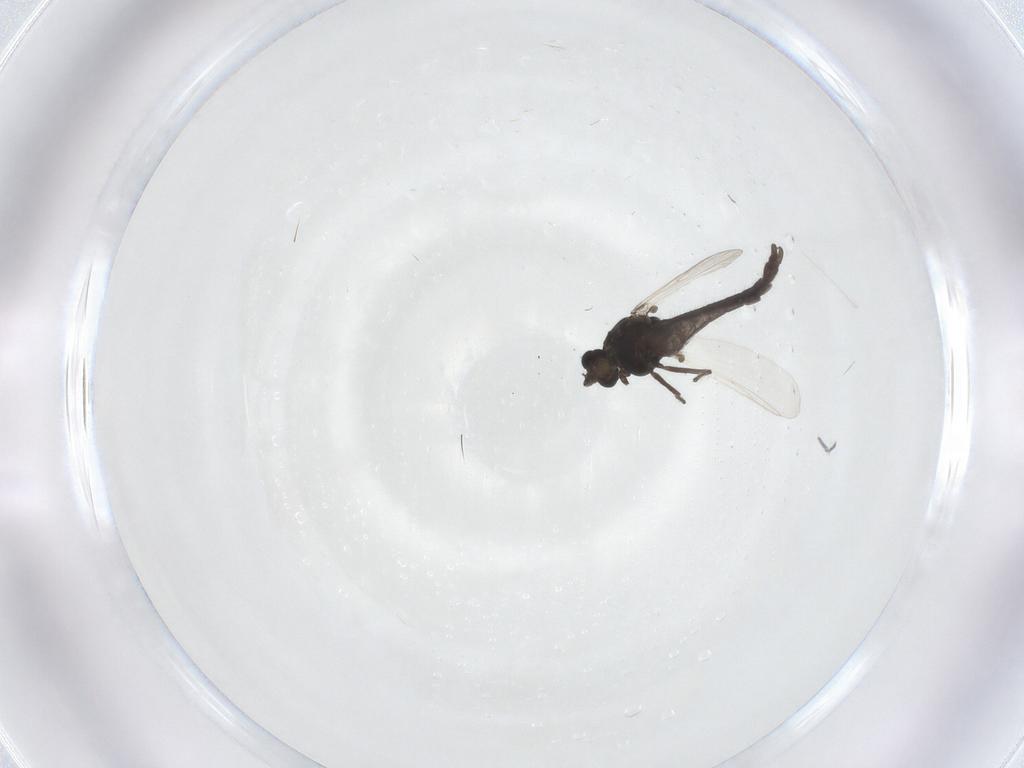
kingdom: Animalia
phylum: Arthropoda
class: Insecta
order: Diptera
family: Chironomidae
